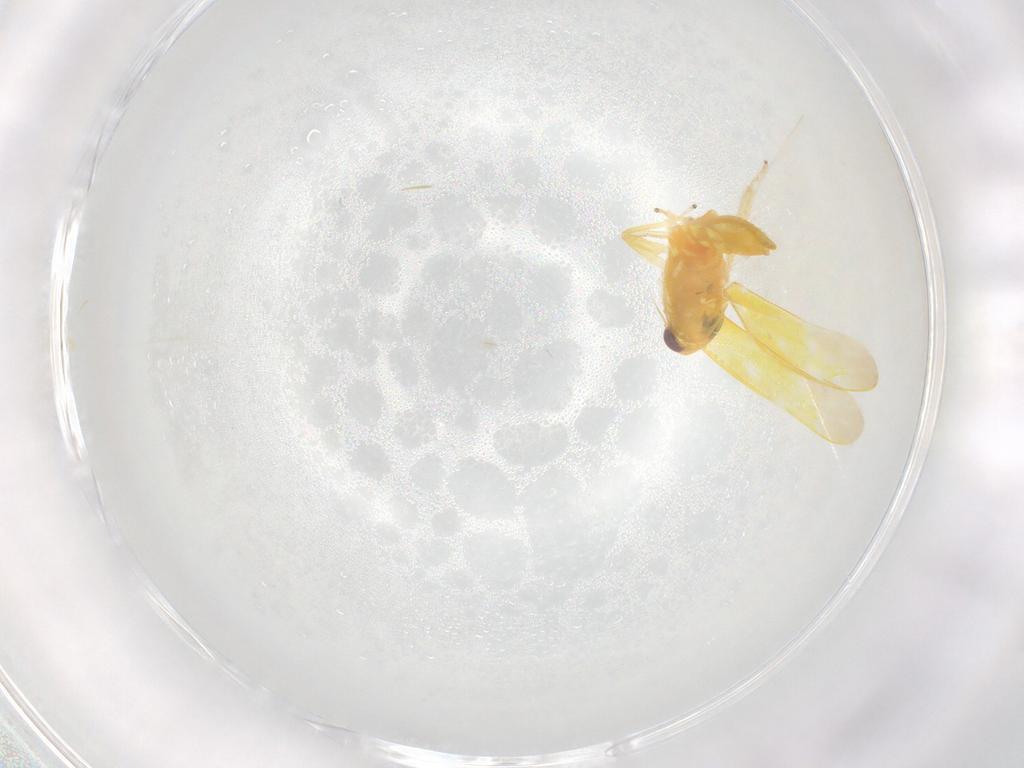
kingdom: Animalia
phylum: Arthropoda
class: Insecta
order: Hemiptera
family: Cicadellidae
